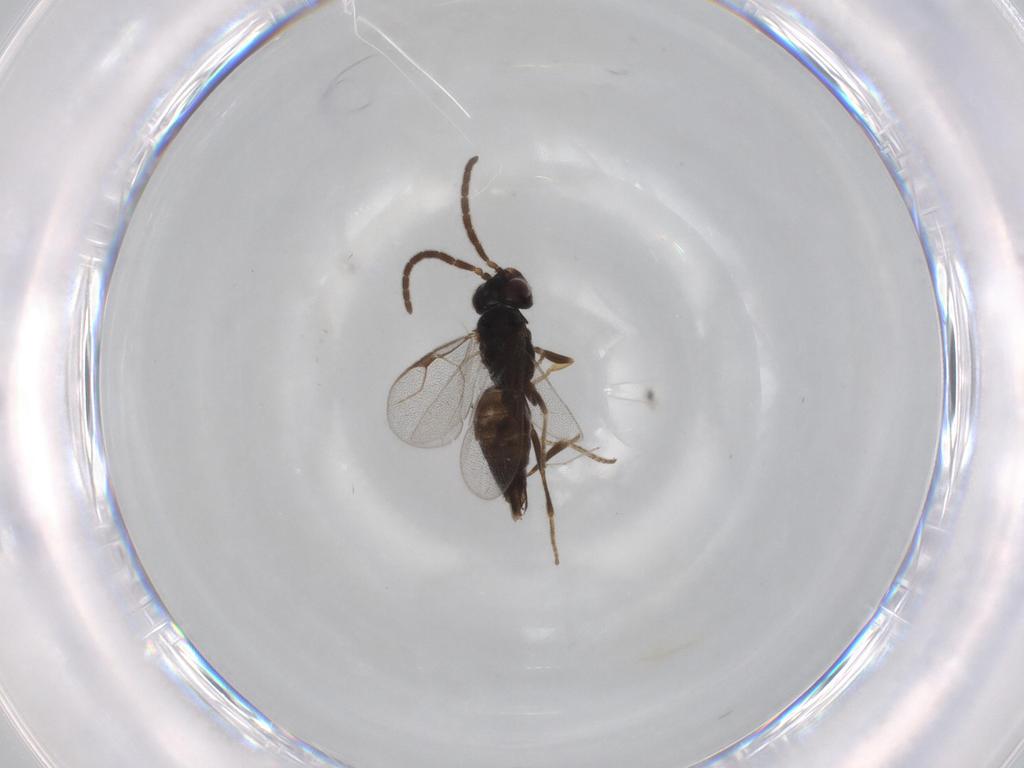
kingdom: Animalia
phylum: Arthropoda
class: Insecta
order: Hymenoptera
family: Dryinidae
